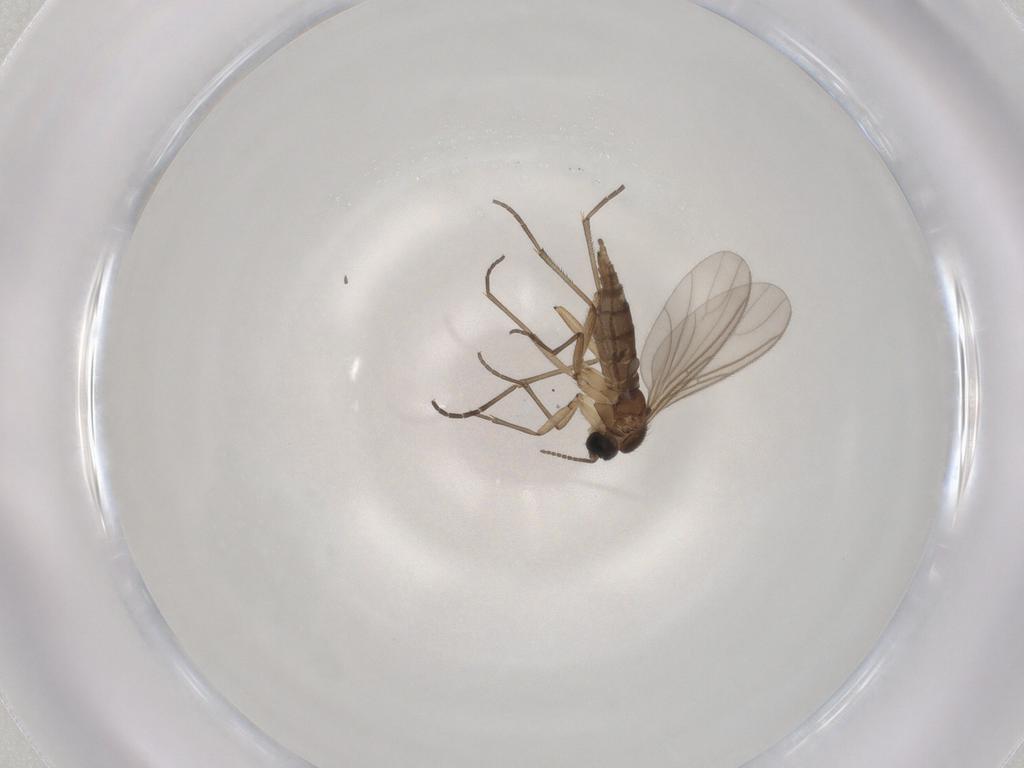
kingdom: Animalia
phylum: Arthropoda
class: Insecta
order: Diptera
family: Sciaridae
